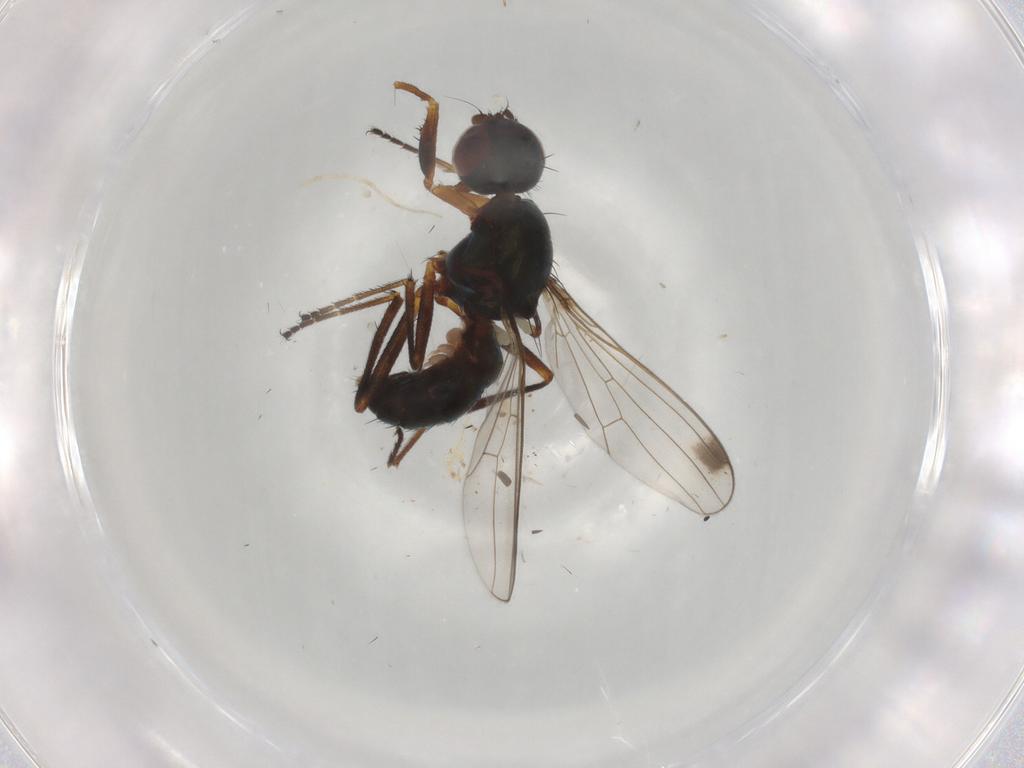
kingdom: Animalia
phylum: Arthropoda
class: Insecta
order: Diptera
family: Sepsidae
